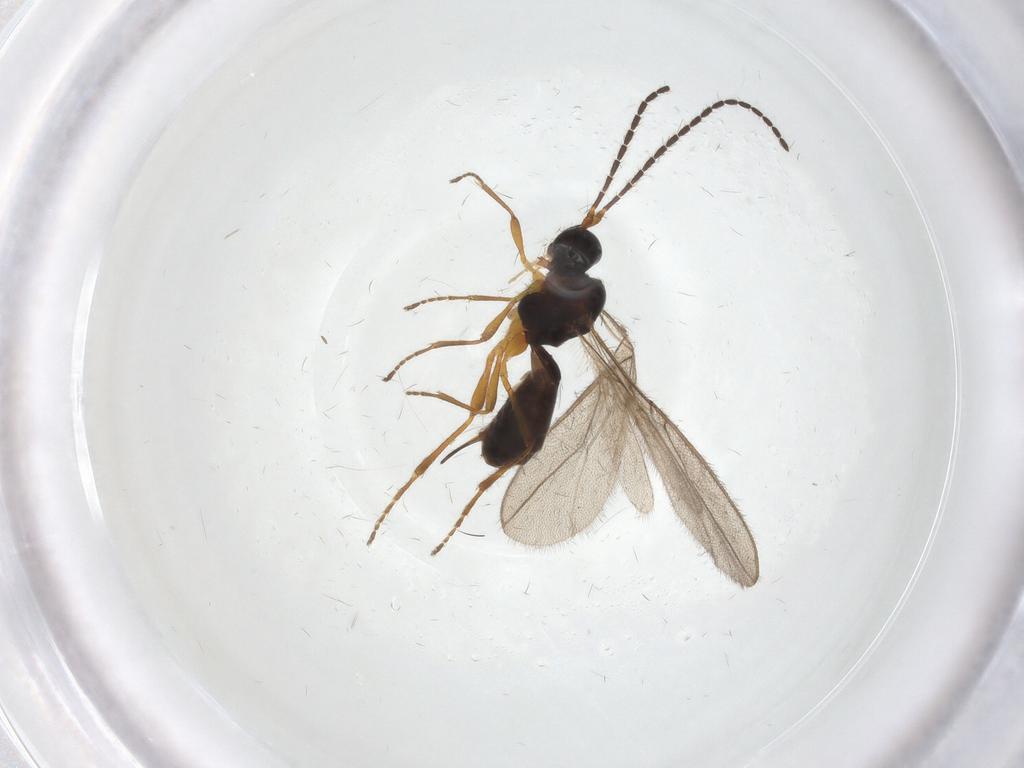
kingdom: Animalia
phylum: Arthropoda
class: Insecta
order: Hymenoptera
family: Braconidae
